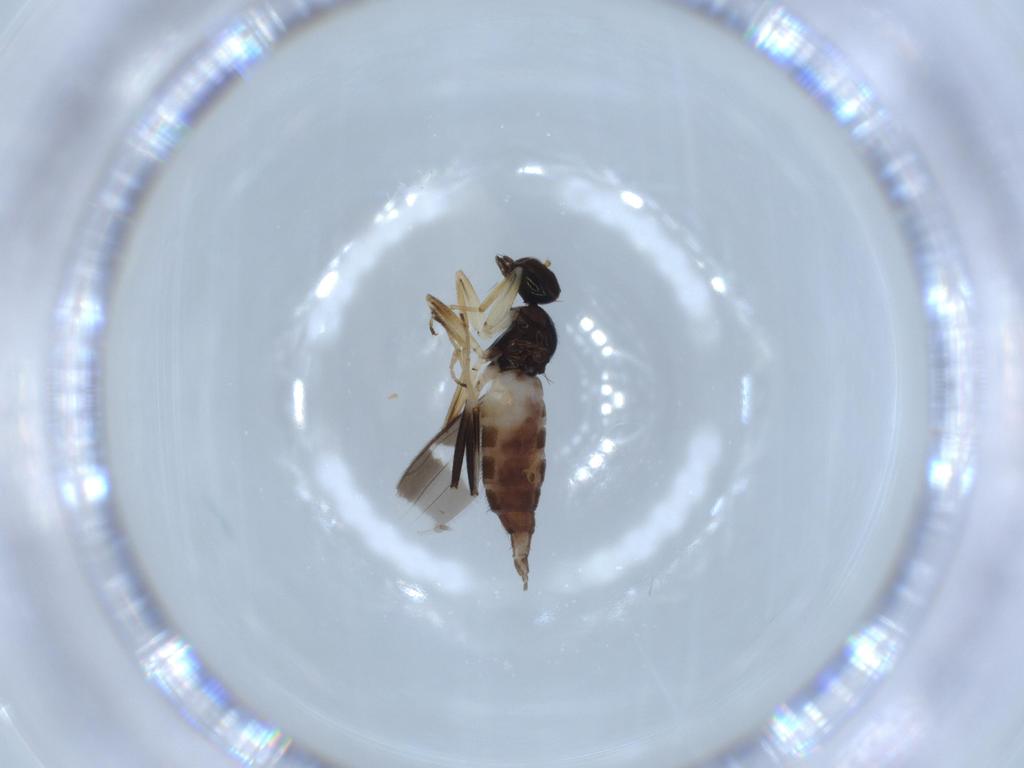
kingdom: Animalia
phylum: Arthropoda
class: Insecta
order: Diptera
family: Hybotidae
